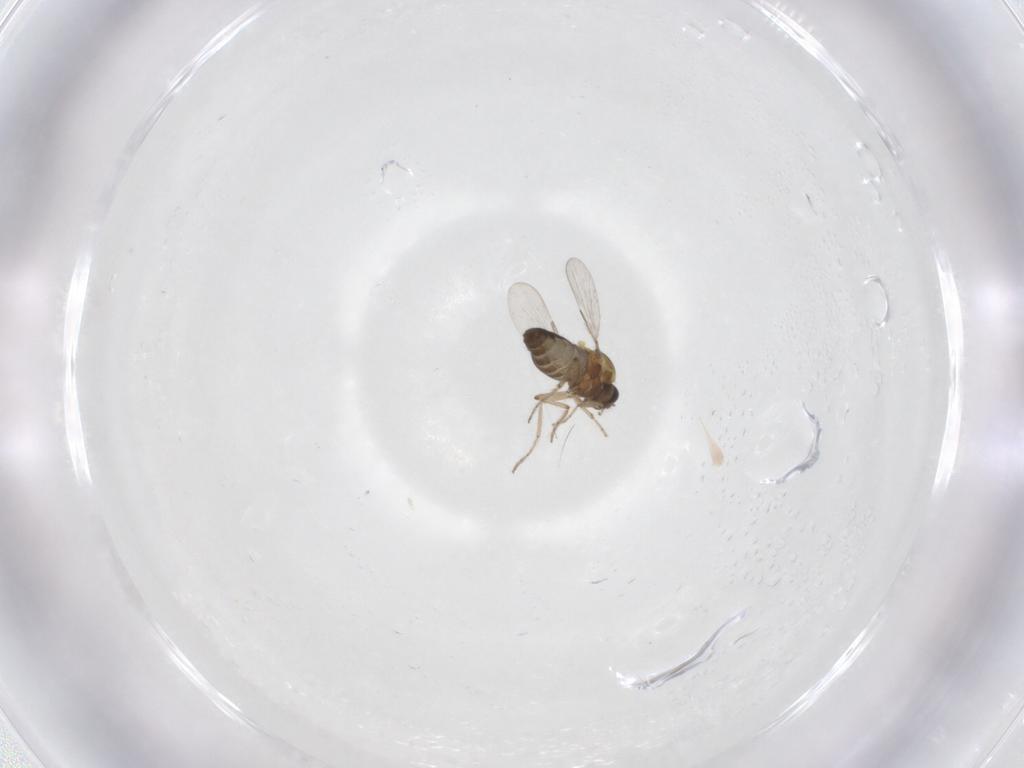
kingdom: Animalia
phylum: Arthropoda
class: Insecta
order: Diptera
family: Ceratopogonidae
